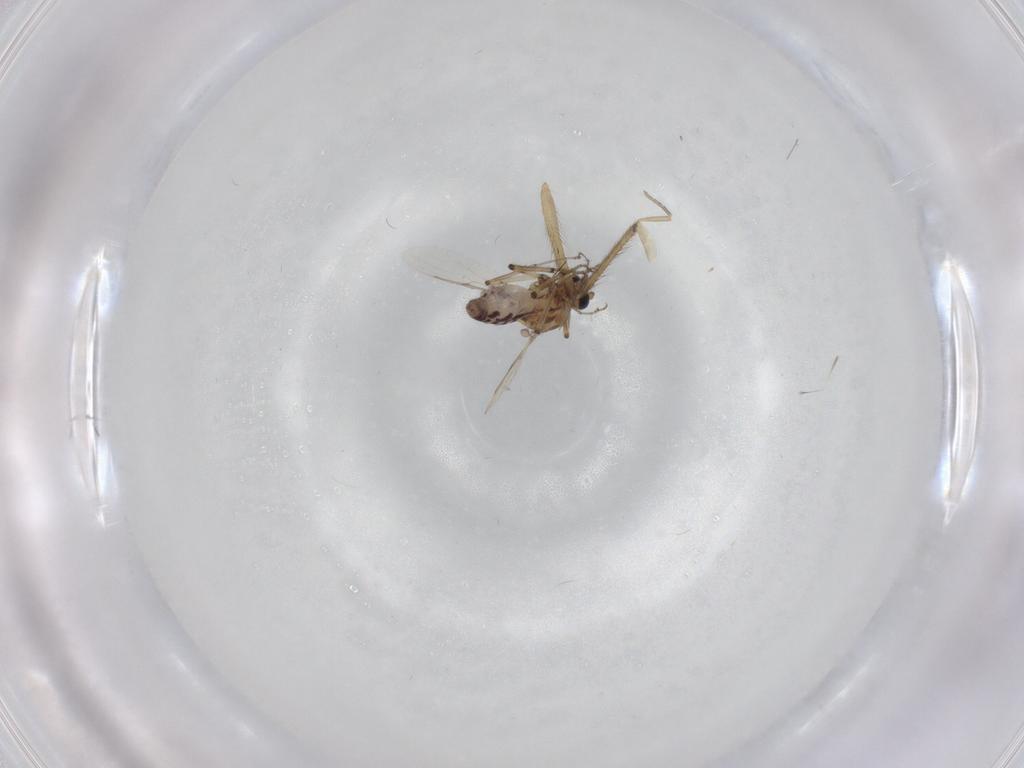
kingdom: Animalia
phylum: Arthropoda
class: Insecta
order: Diptera
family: Ceratopogonidae
